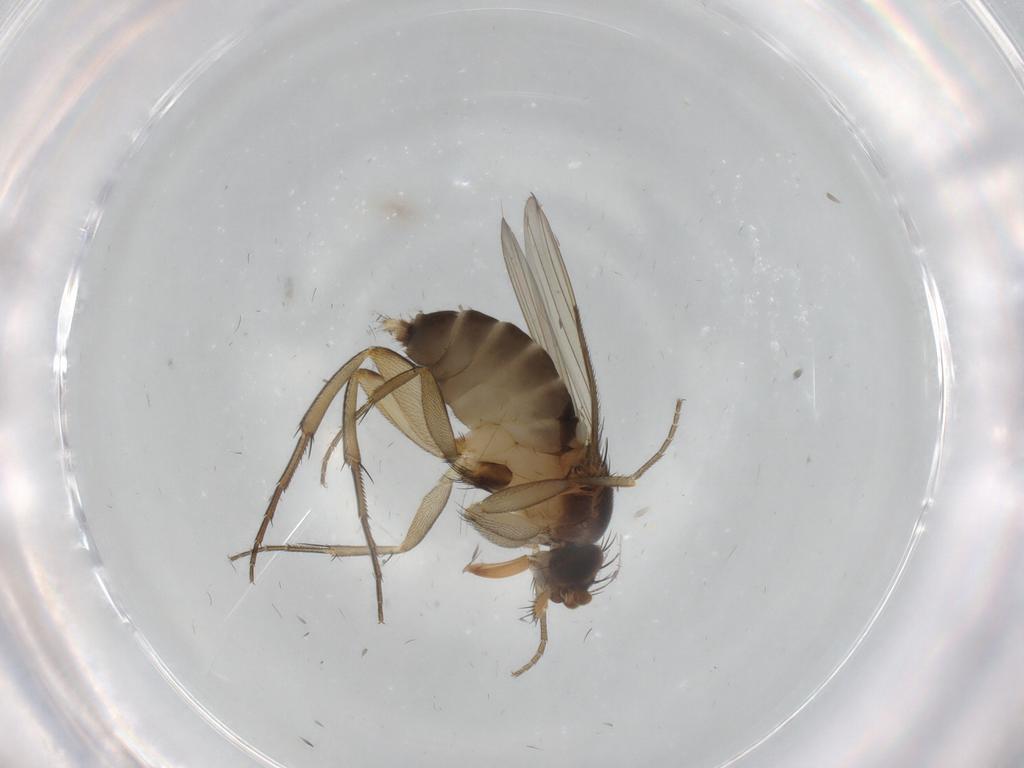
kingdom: Animalia
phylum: Arthropoda
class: Insecta
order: Diptera
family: Phoridae
